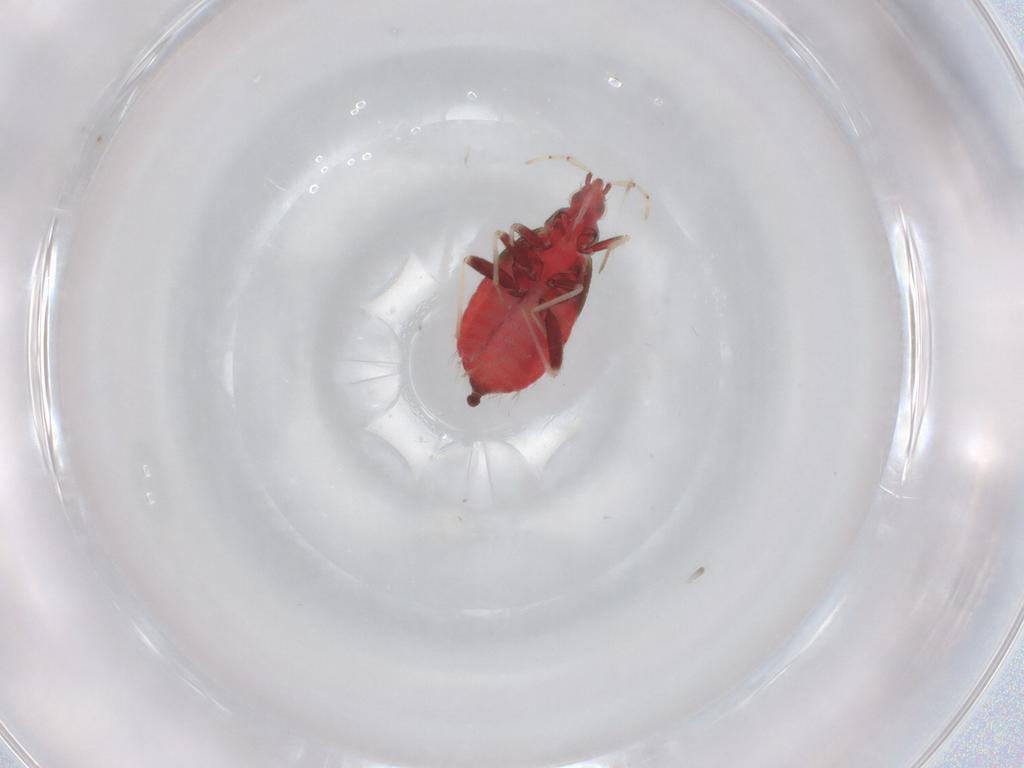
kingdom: Animalia
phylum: Arthropoda
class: Insecta
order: Hemiptera
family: Miridae
